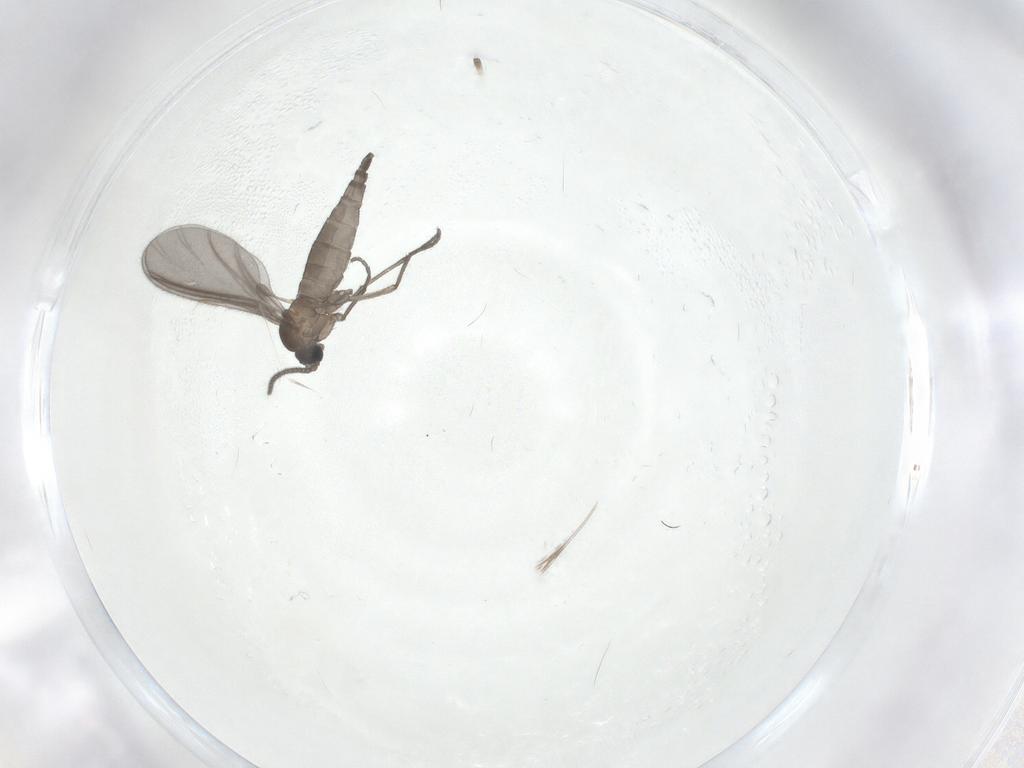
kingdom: Animalia
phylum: Arthropoda
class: Insecta
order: Diptera
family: Sciaridae
